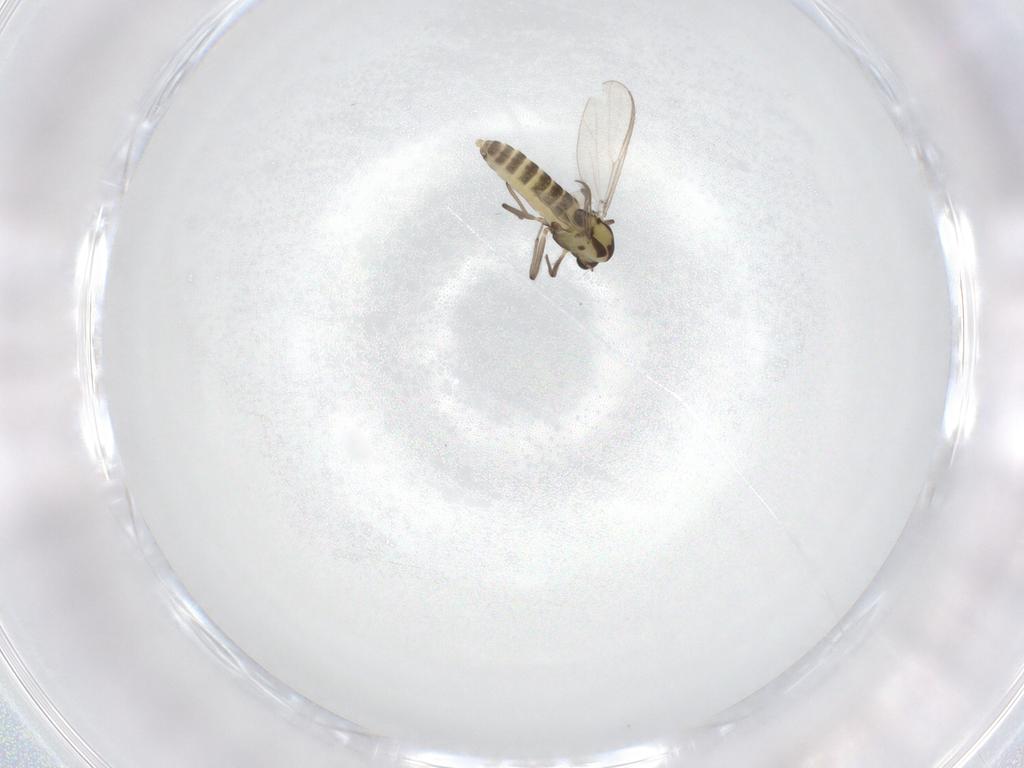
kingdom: Animalia
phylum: Arthropoda
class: Insecta
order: Diptera
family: Chironomidae
